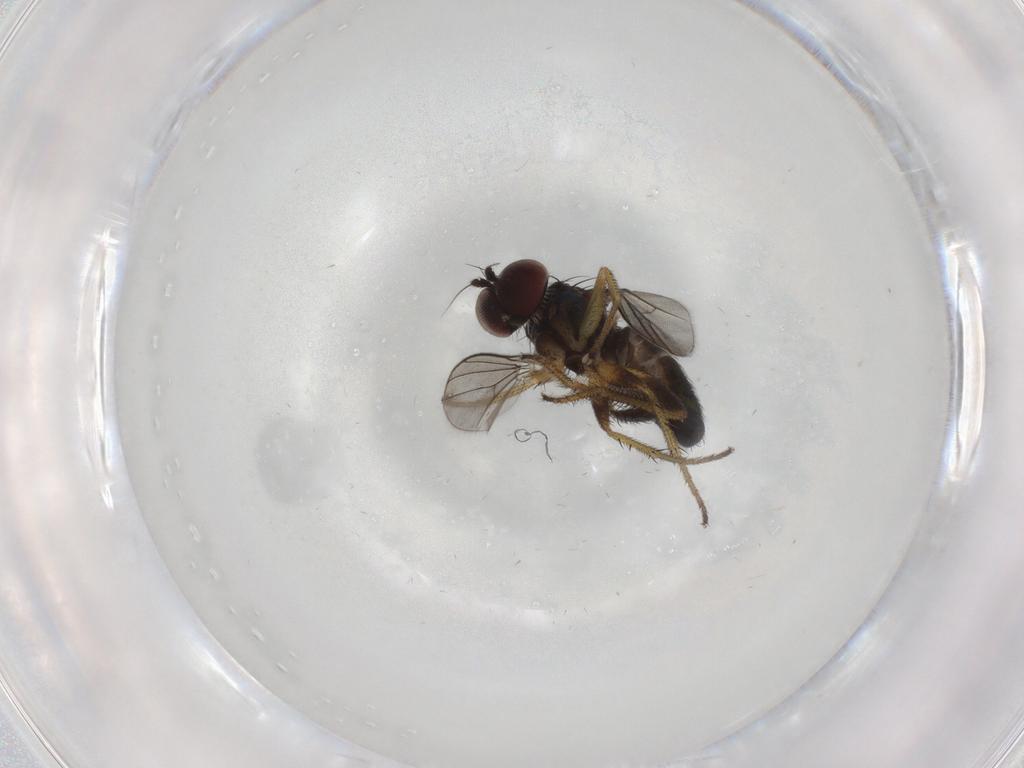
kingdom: Animalia
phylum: Arthropoda
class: Insecta
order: Diptera
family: Dolichopodidae
